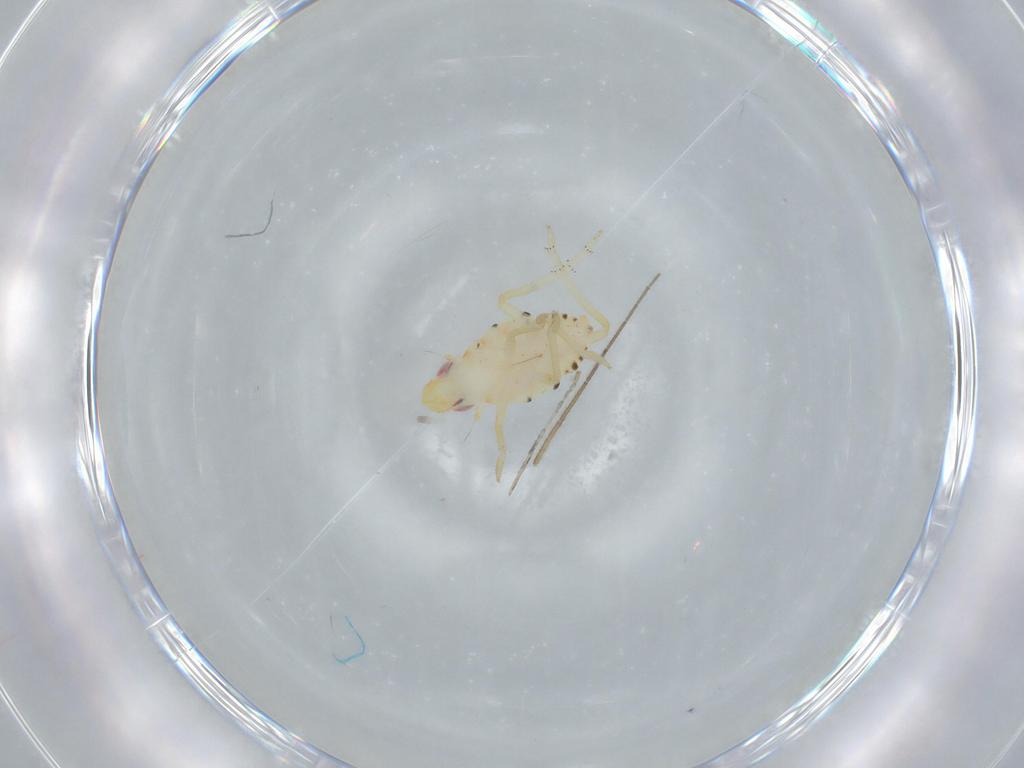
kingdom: Animalia
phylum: Arthropoda
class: Insecta
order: Hemiptera
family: Tropiduchidae
